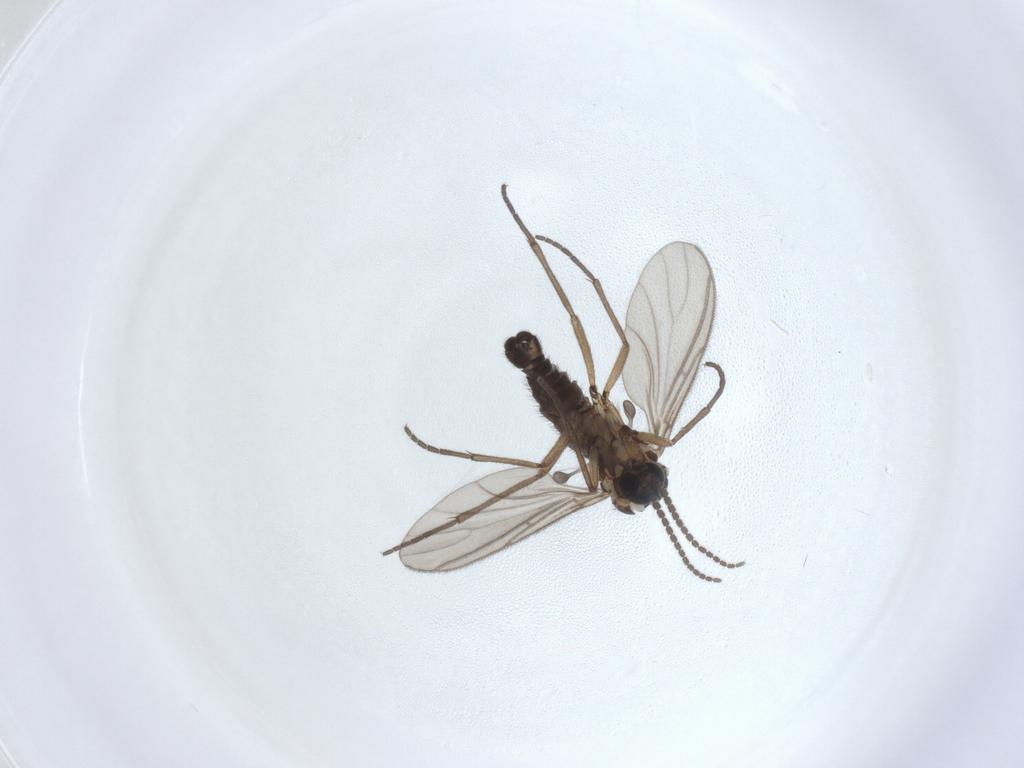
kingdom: Animalia
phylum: Arthropoda
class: Insecta
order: Diptera
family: Sciaridae
